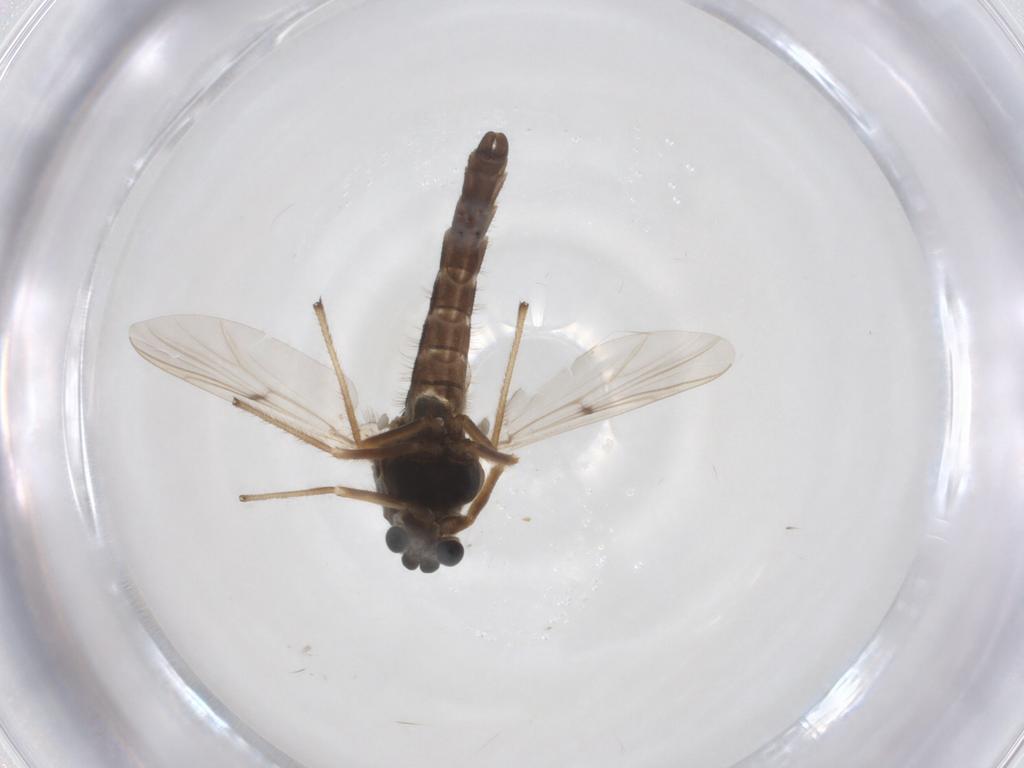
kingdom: Animalia
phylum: Arthropoda
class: Insecta
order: Diptera
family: Chironomidae
